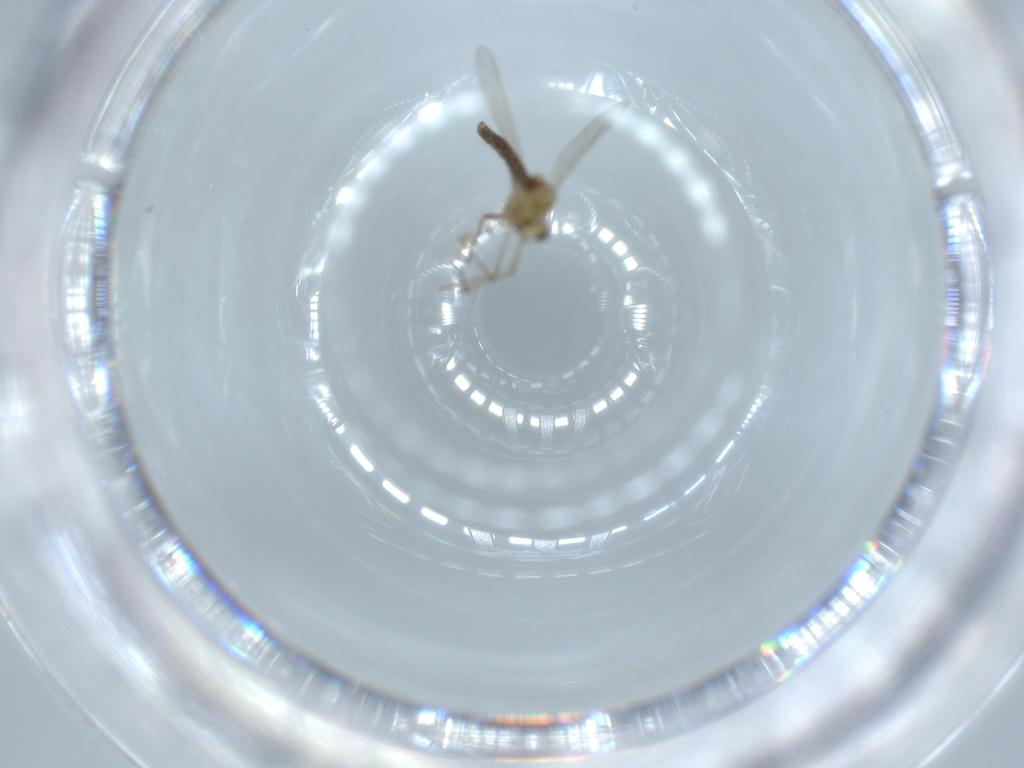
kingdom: Animalia
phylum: Arthropoda
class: Insecta
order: Diptera
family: Chironomidae
